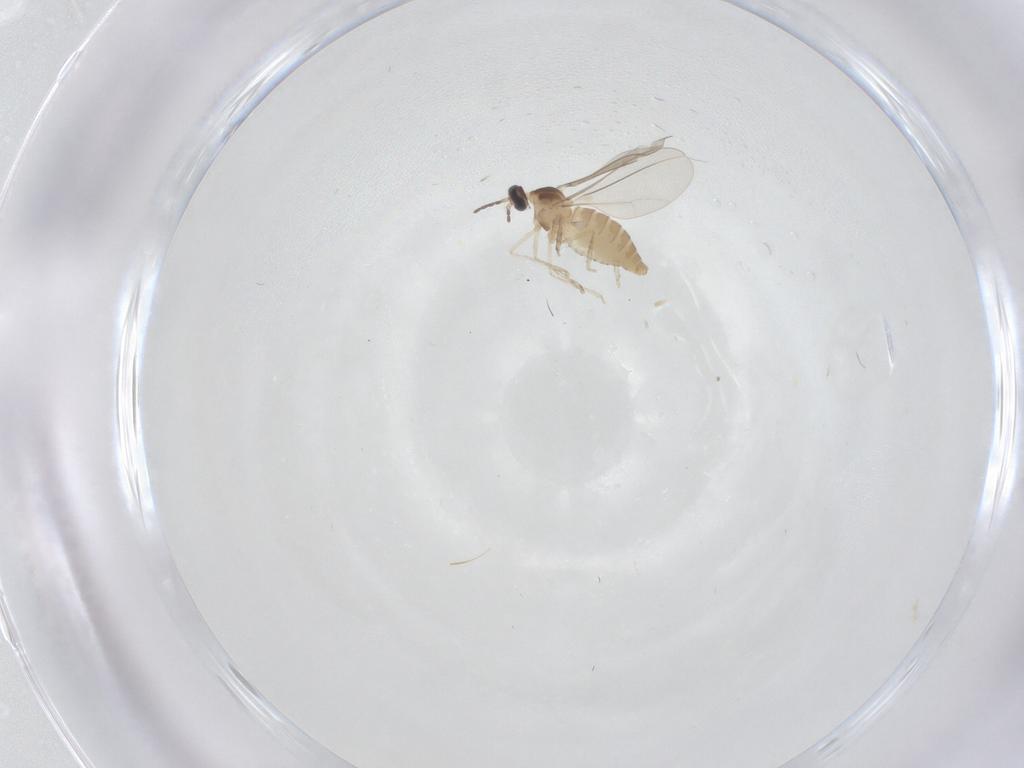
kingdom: Animalia
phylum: Arthropoda
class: Insecta
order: Diptera
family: Cecidomyiidae
